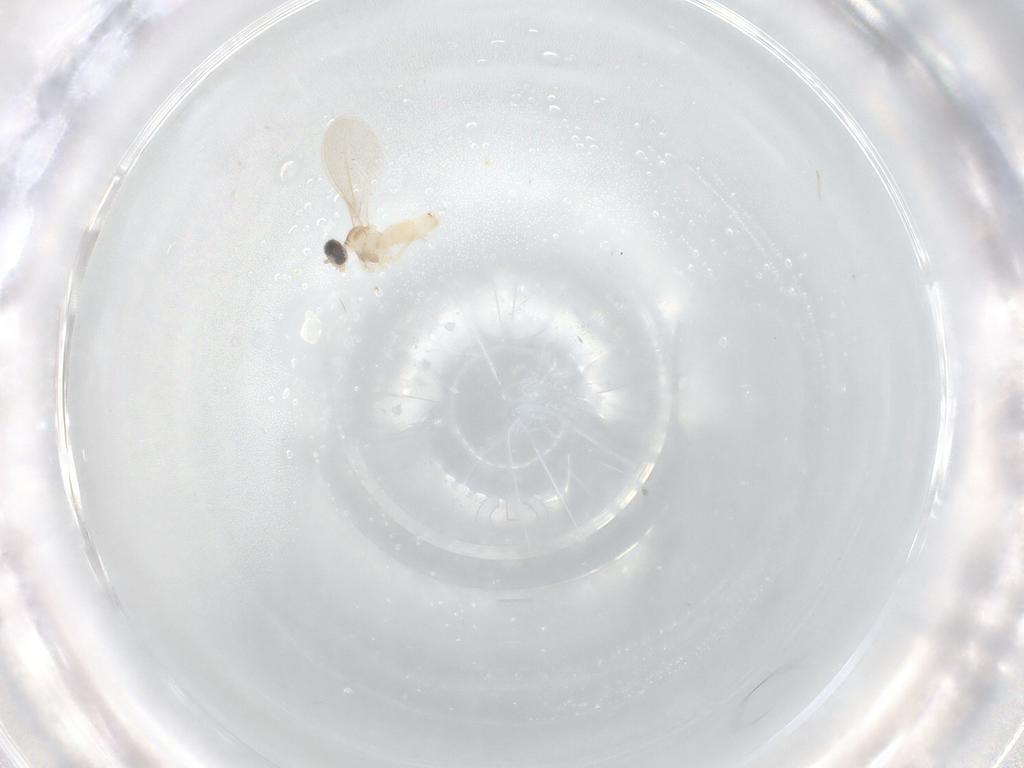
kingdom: Animalia
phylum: Arthropoda
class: Insecta
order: Diptera
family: Cecidomyiidae
